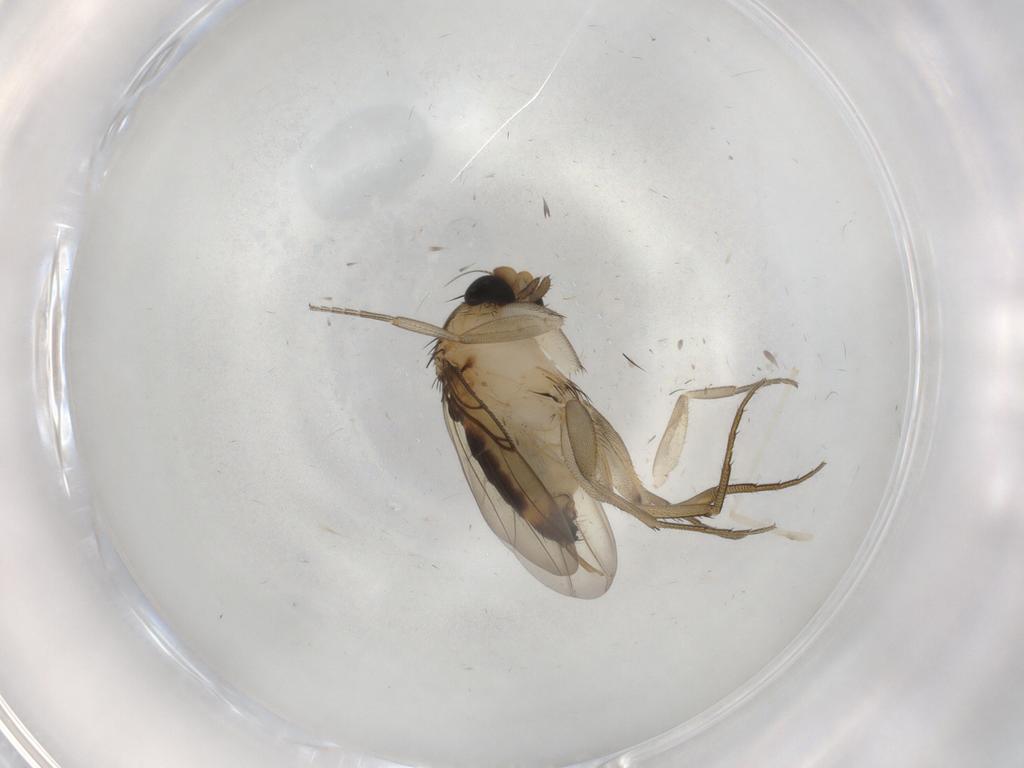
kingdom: Animalia
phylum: Arthropoda
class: Insecta
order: Diptera
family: Phoridae
